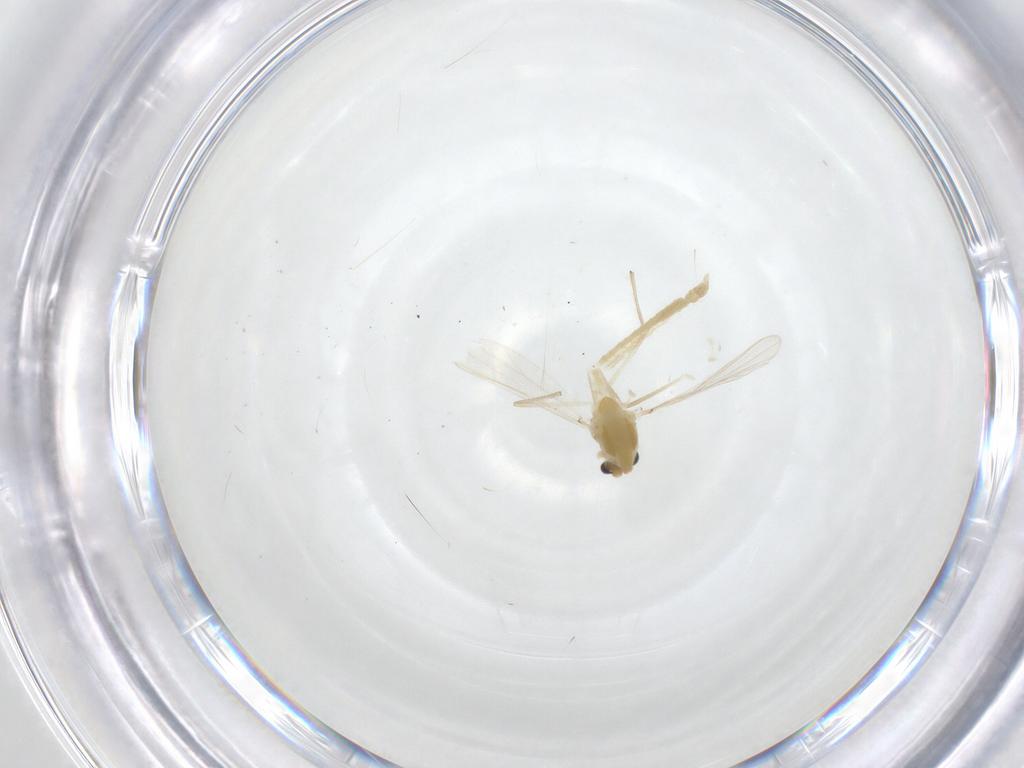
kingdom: Animalia
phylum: Arthropoda
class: Insecta
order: Diptera
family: Chironomidae
